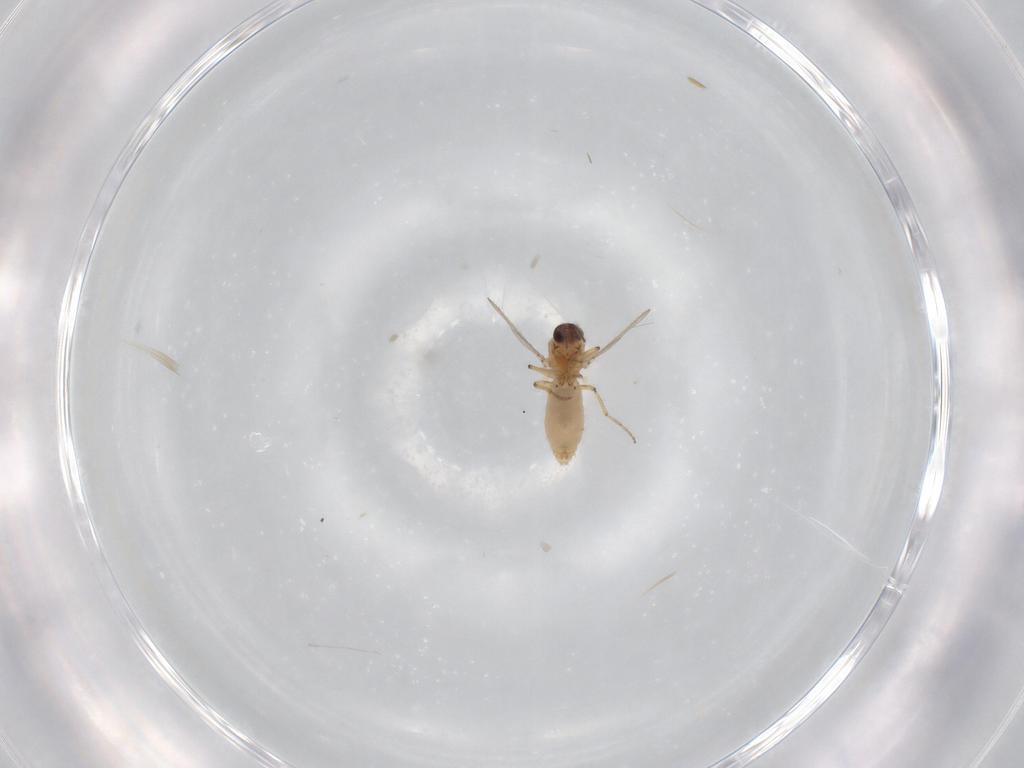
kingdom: Animalia
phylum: Arthropoda
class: Insecta
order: Diptera
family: Ceratopogonidae
